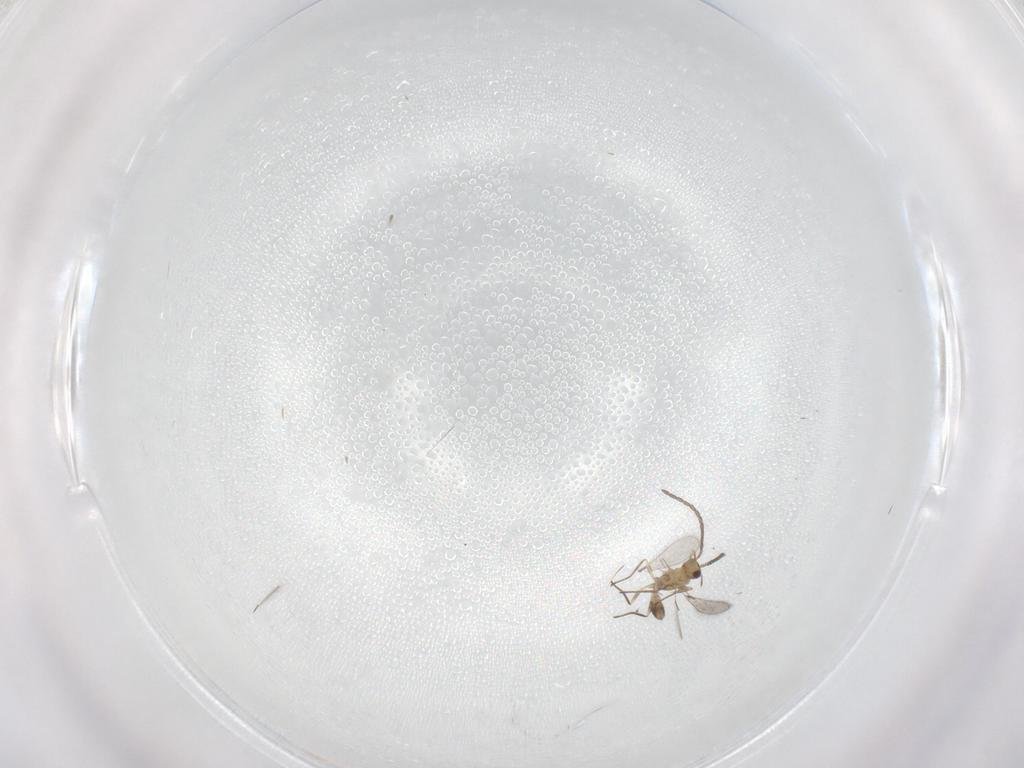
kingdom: Animalia
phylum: Arthropoda
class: Insecta
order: Hymenoptera
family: Mymaridae
